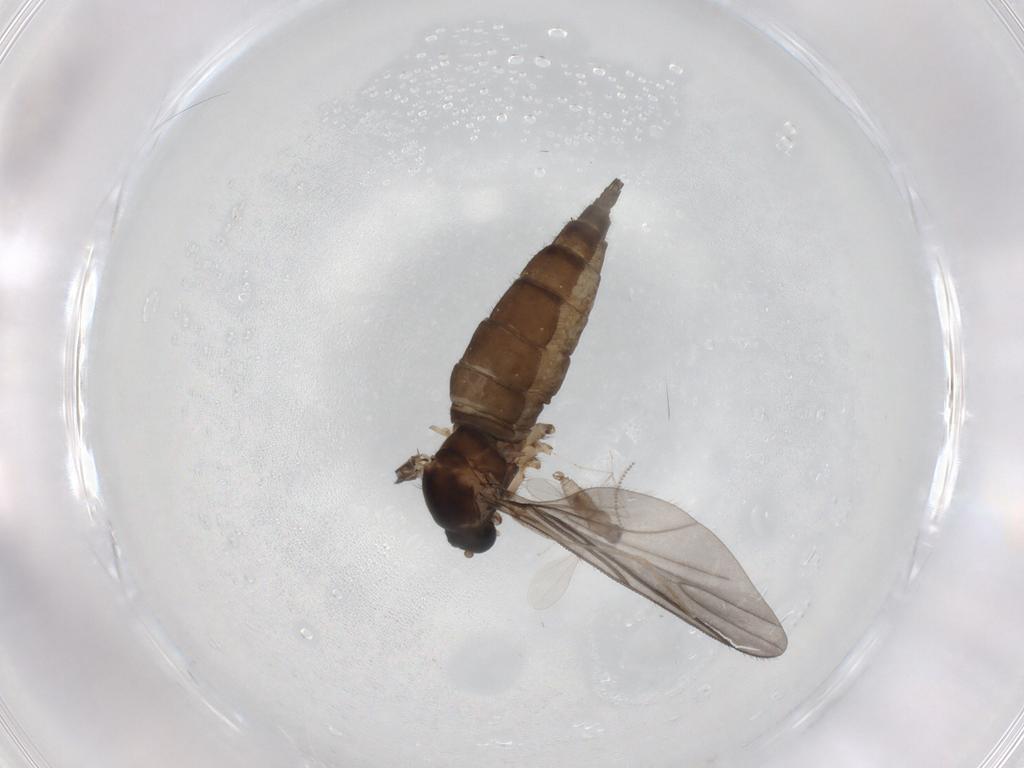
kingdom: Animalia
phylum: Arthropoda
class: Insecta
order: Diptera
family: Sciaridae
